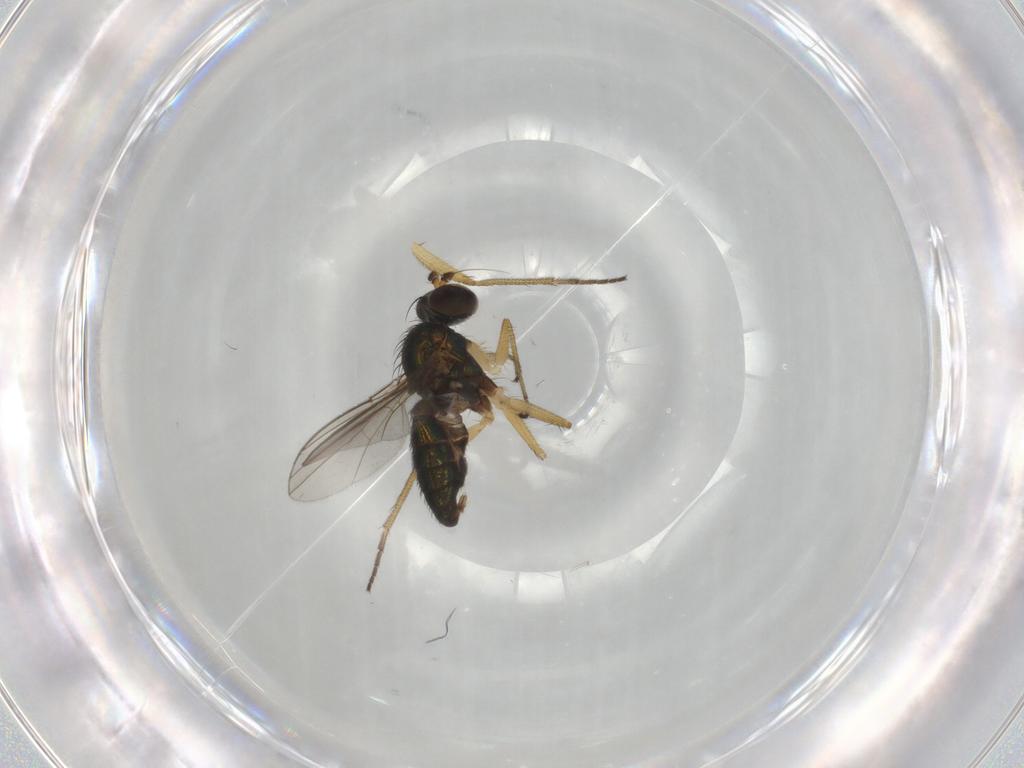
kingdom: Animalia
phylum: Arthropoda
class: Insecta
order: Diptera
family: Dolichopodidae
